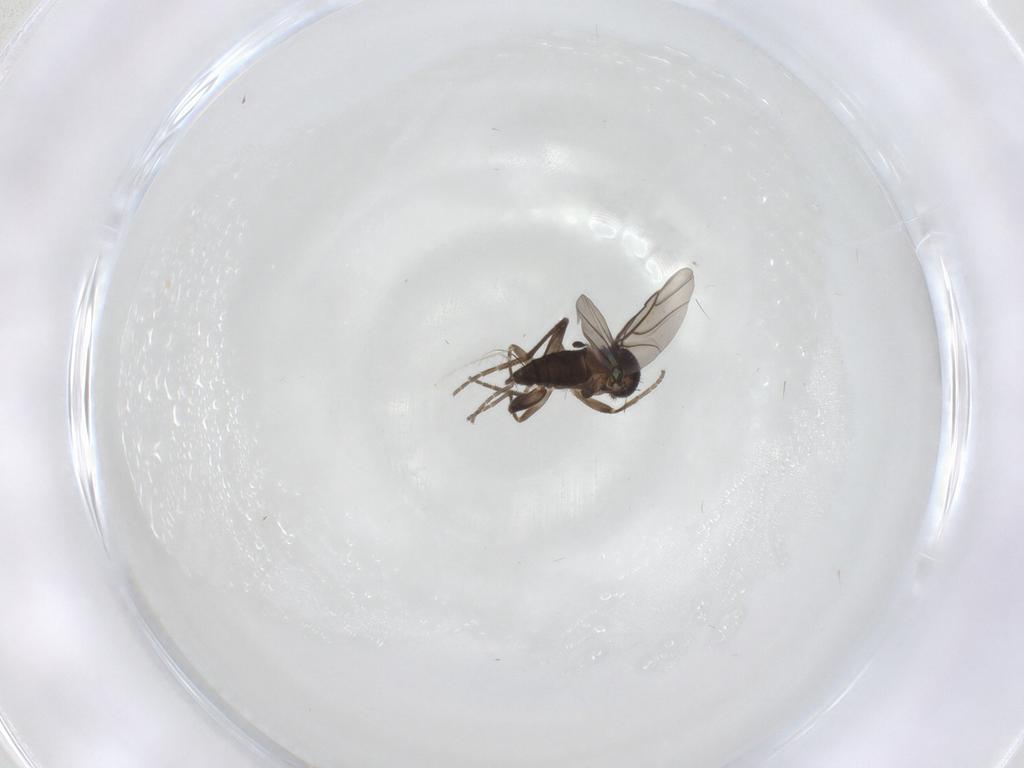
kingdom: Animalia
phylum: Arthropoda
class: Insecta
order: Diptera
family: Phoridae
